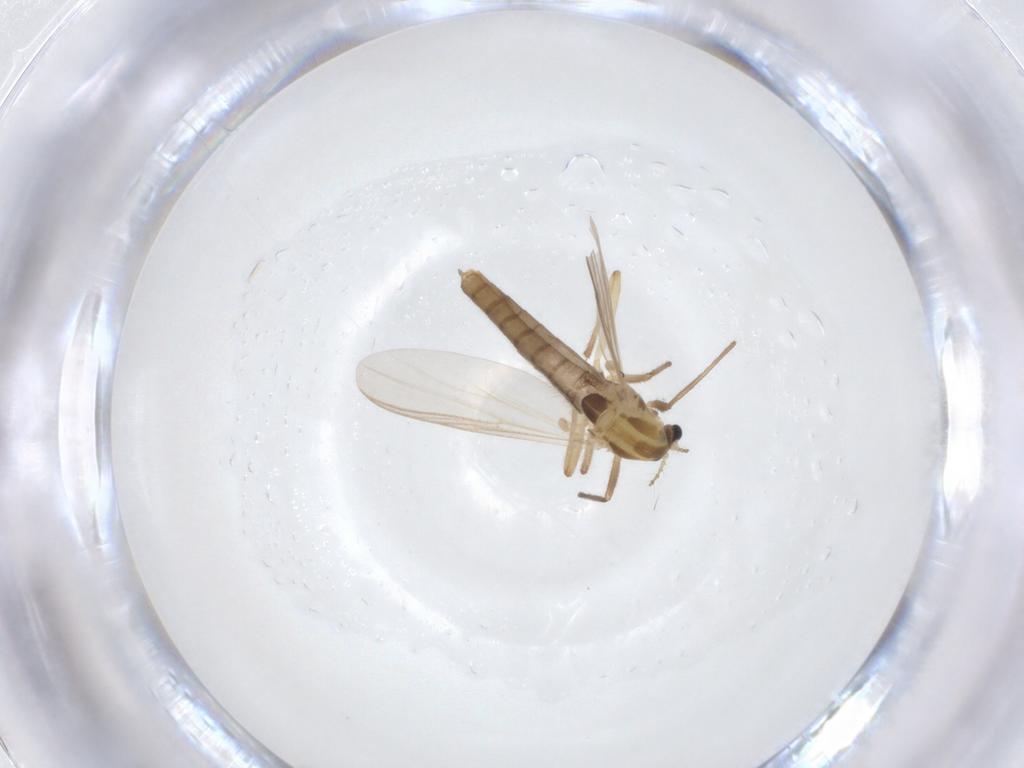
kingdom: Animalia
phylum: Arthropoda
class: Insecta
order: Diptera
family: Chironomidae
